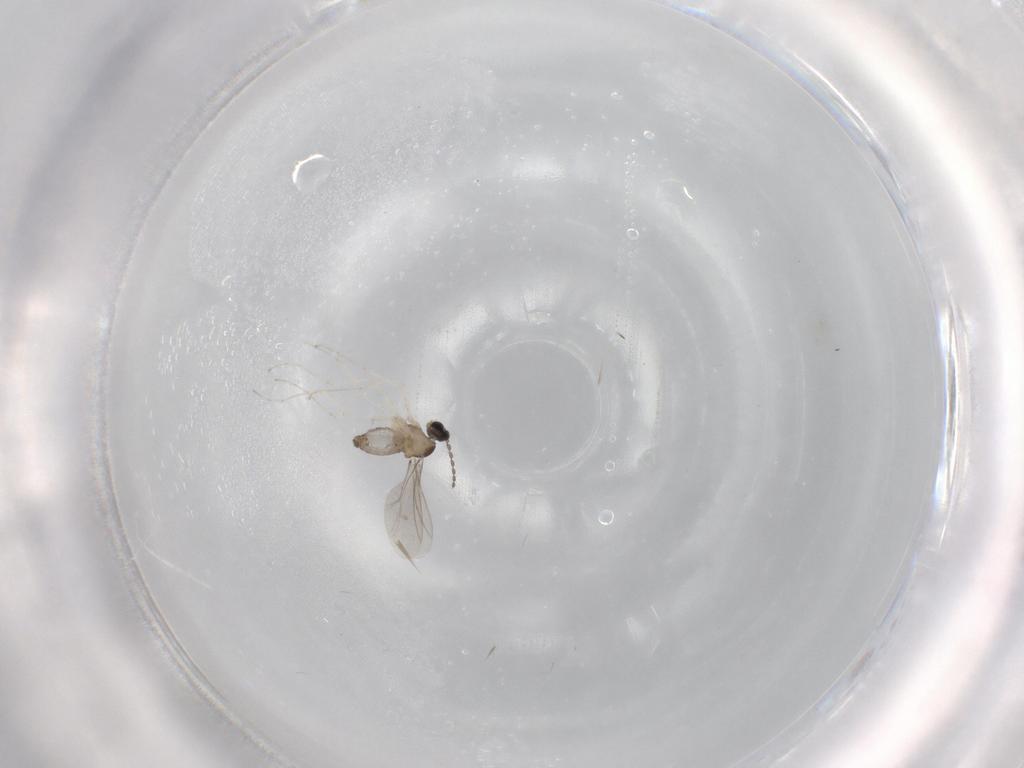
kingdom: Animalia
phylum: Arthropoda
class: Insecta
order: Diptera
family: Cecidomyiidae
